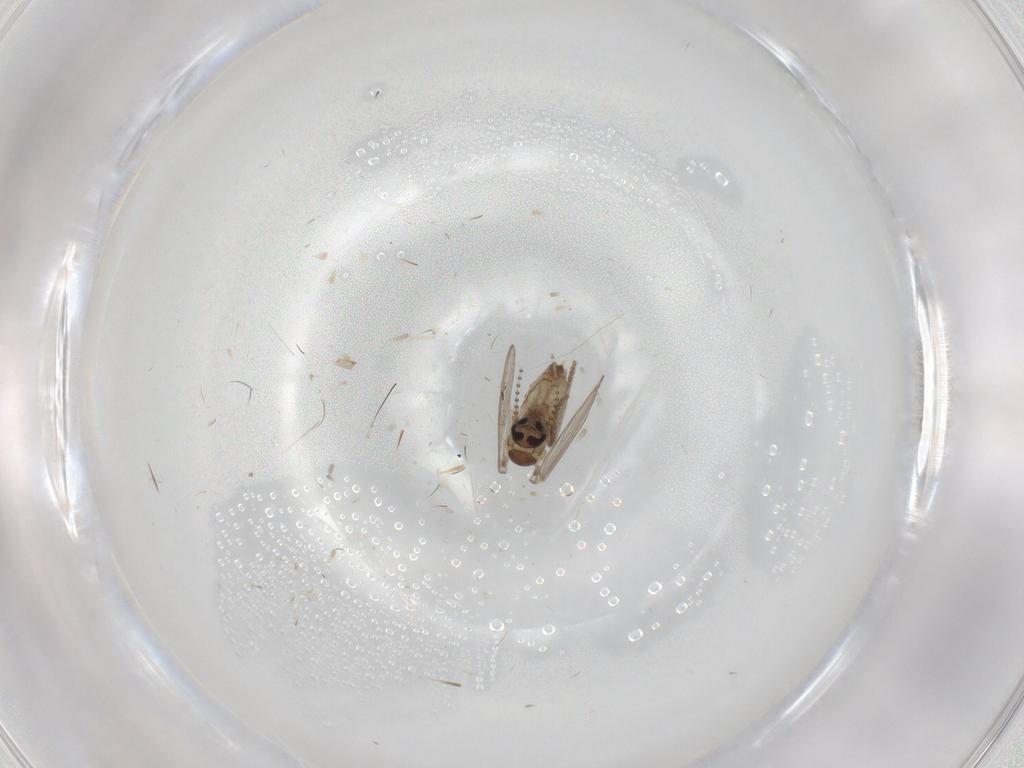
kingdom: Animalia
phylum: Arthropoda
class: Insecta
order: Diptera
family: Psychodidae
